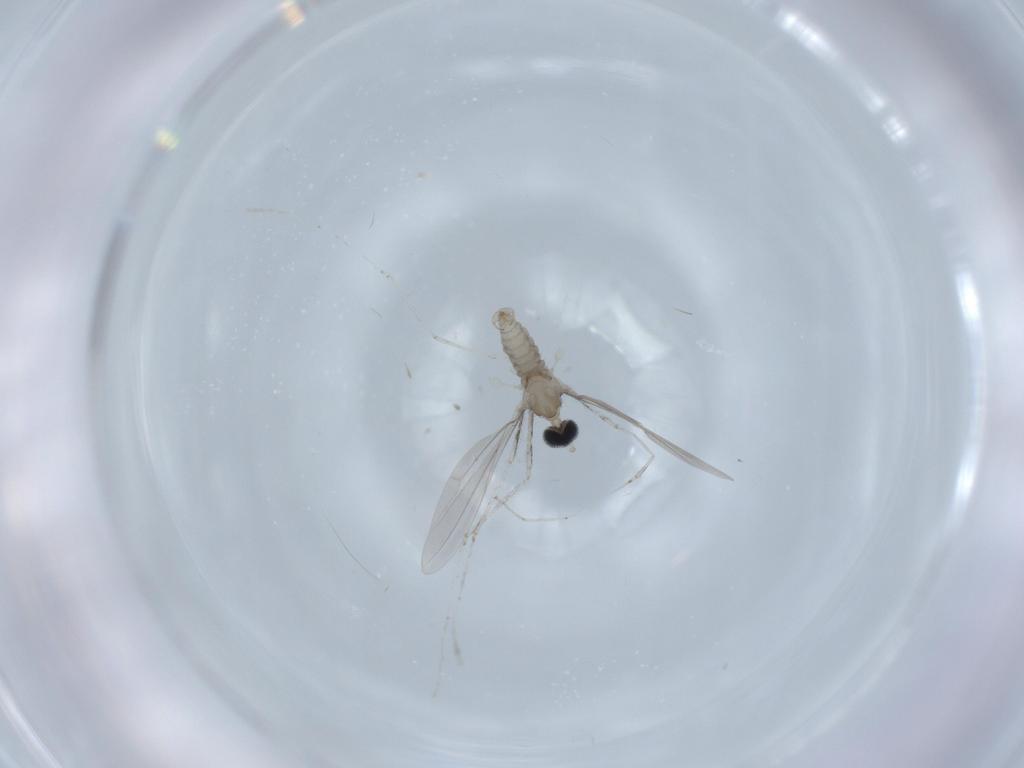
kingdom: Animalia
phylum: Arthropoda
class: Insecta
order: Diptera
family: Cecidomyiidae
